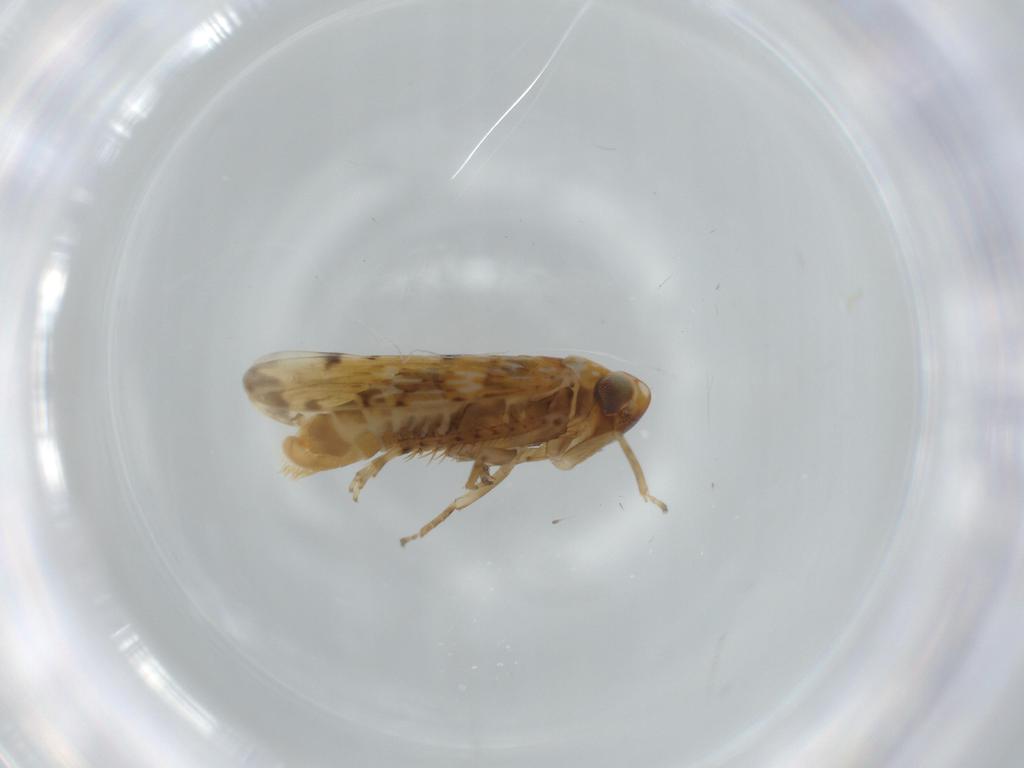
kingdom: Animalia
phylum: Arthropoda
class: Insecta
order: Hemiptera
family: Cicadellidae
